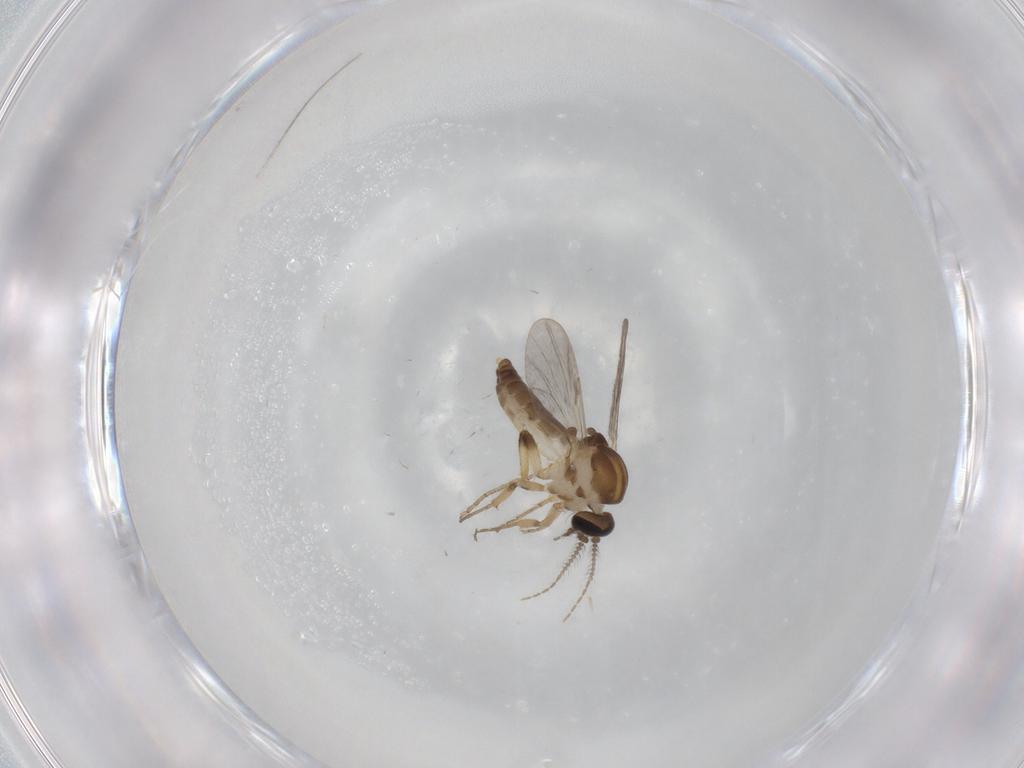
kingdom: Animalia
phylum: Arthropoda
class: Insecta
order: Diptera
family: Ceratopogonidae
